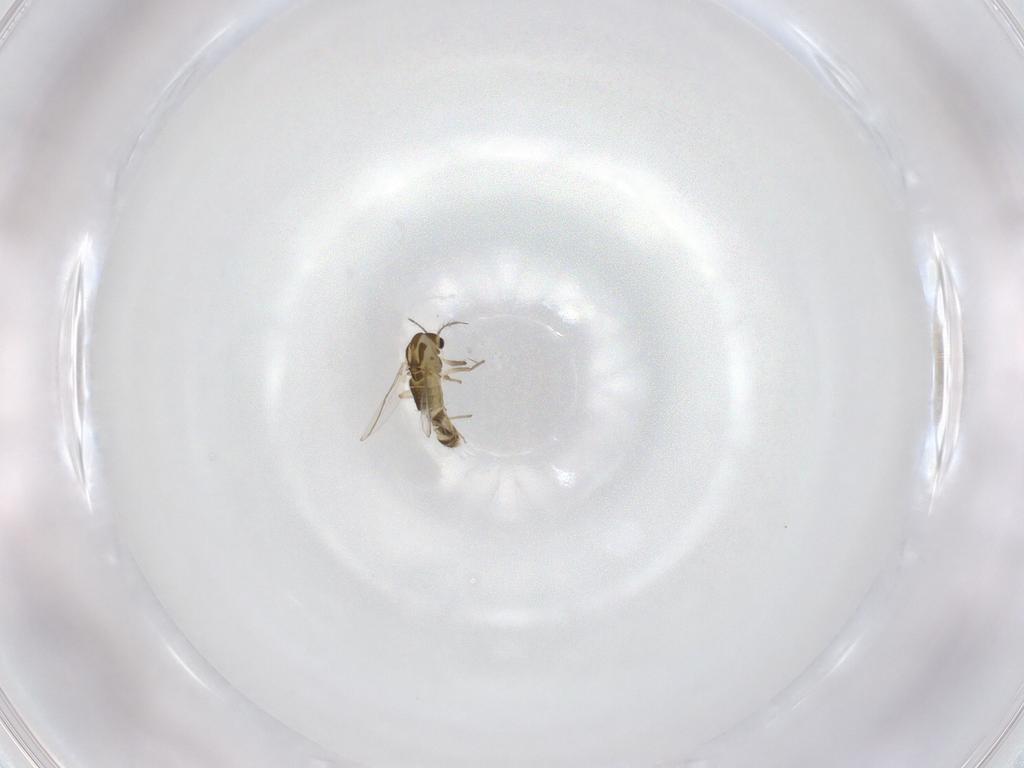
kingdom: Animalia
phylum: Arthropoda
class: Insecta
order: Diptera
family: Chironomidae
